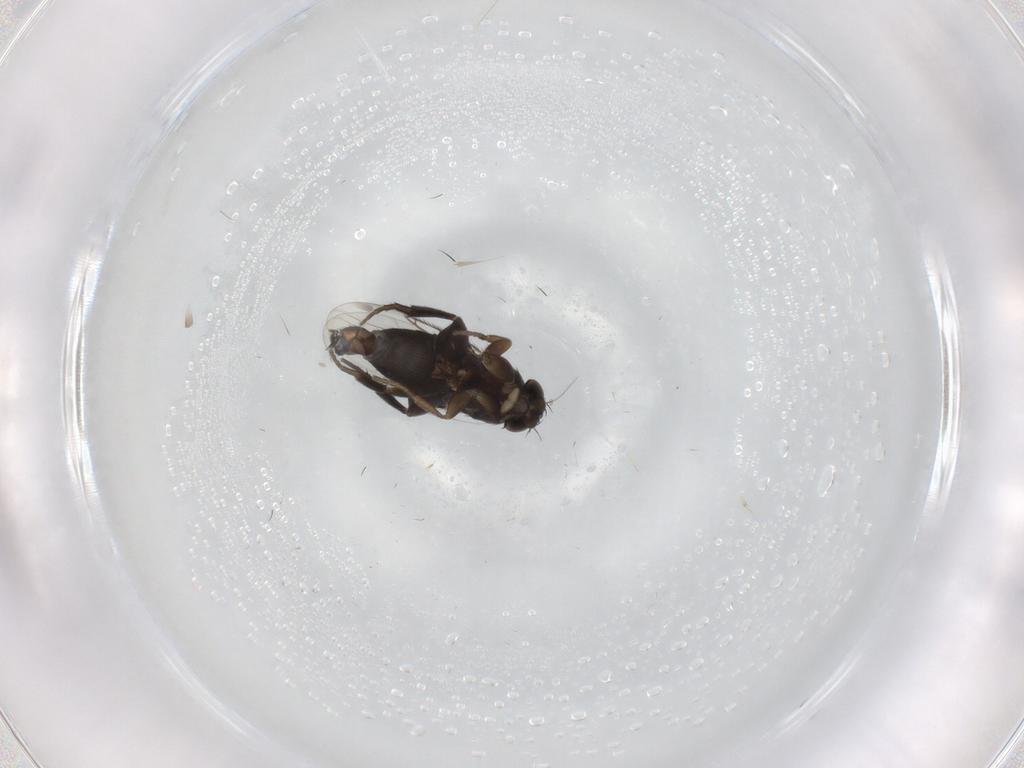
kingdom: Animalia
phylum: Arthropoda
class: Insecta
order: Diptera
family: Phoridae
